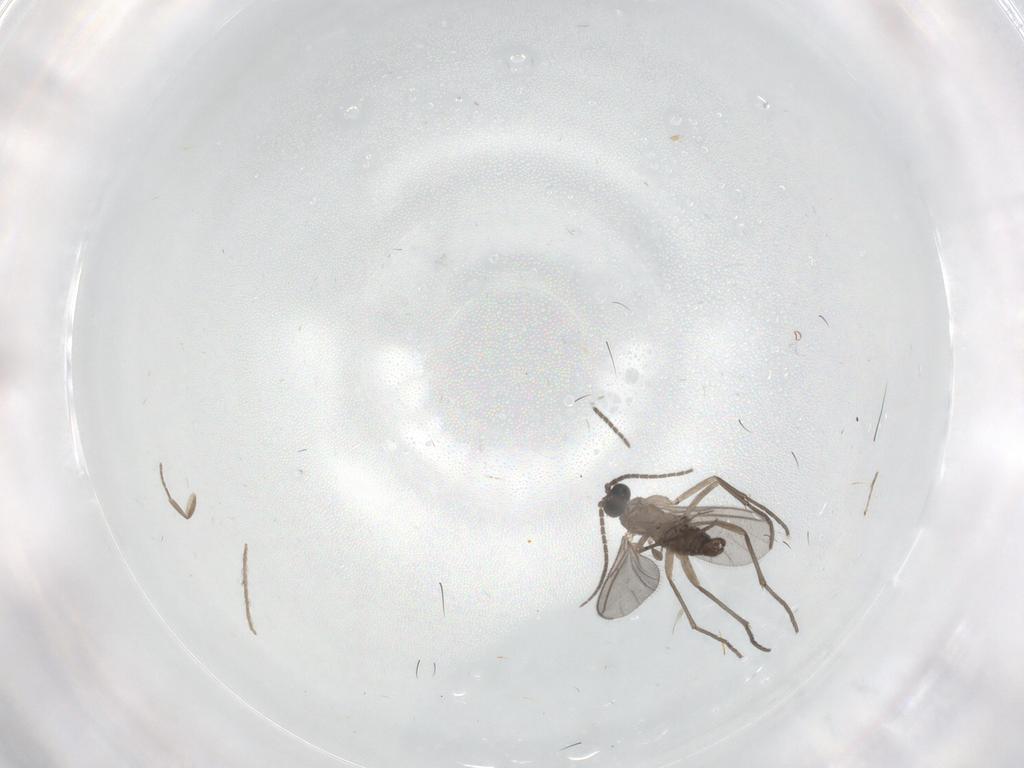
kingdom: Animalia
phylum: Arthropoda
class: Insecta
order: Diptera
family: Sciaridae
